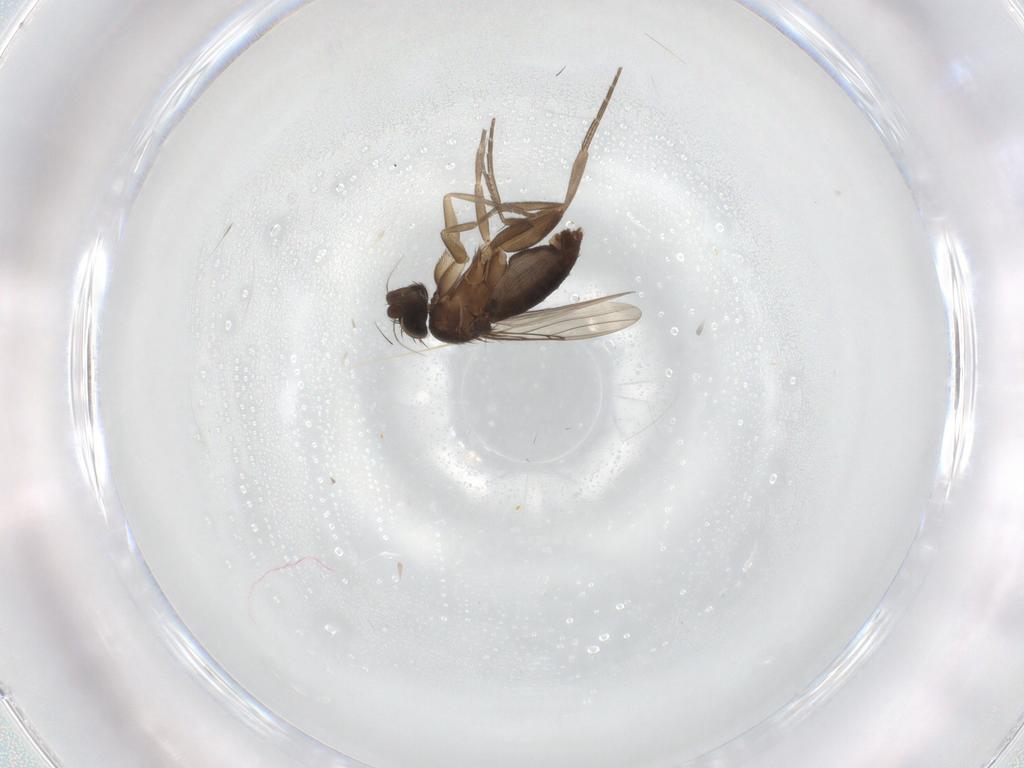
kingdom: Animalia
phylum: Arthropoda
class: Insecta
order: Diptera
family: Phoridae
